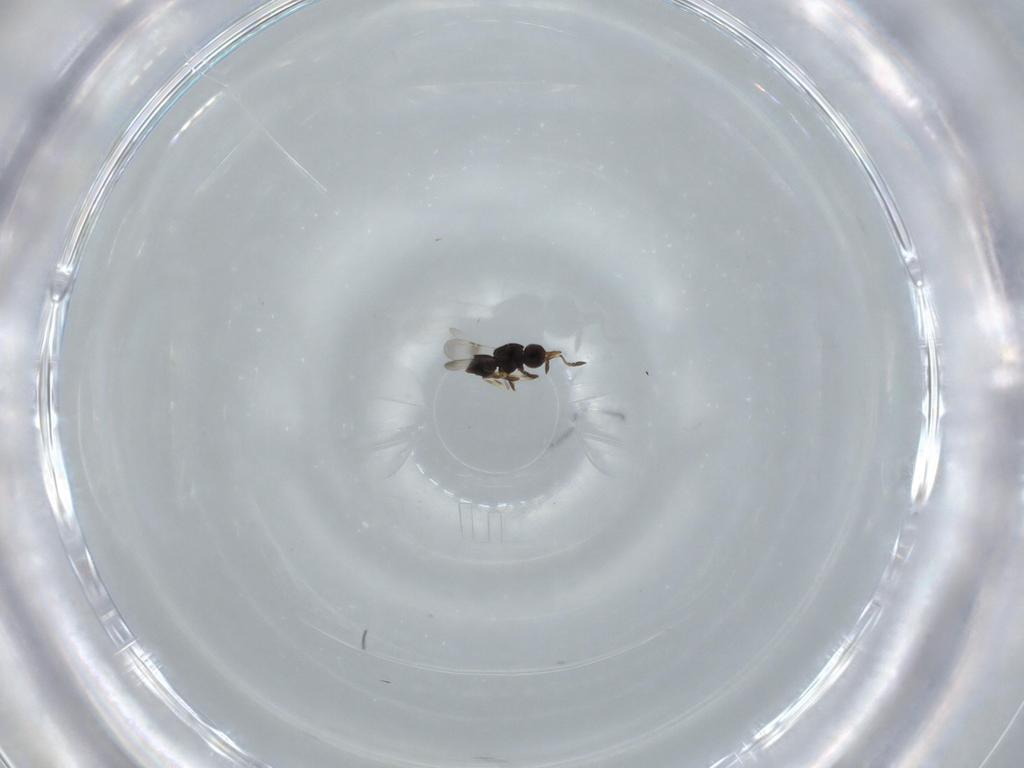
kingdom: Animalia
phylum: Arthropoda
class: Insecta
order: Hymenoptera
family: Ceraphronidae
